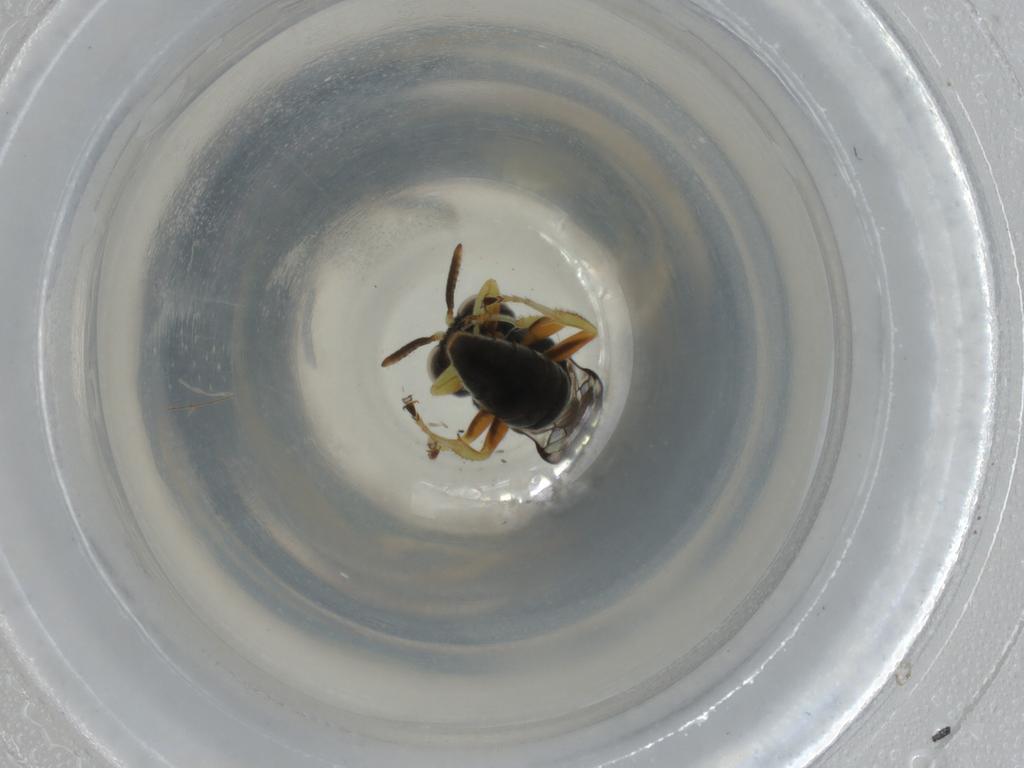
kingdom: Animalia
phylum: Arthropoda
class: Insecta
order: Hymenoptera
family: Crabronidae
